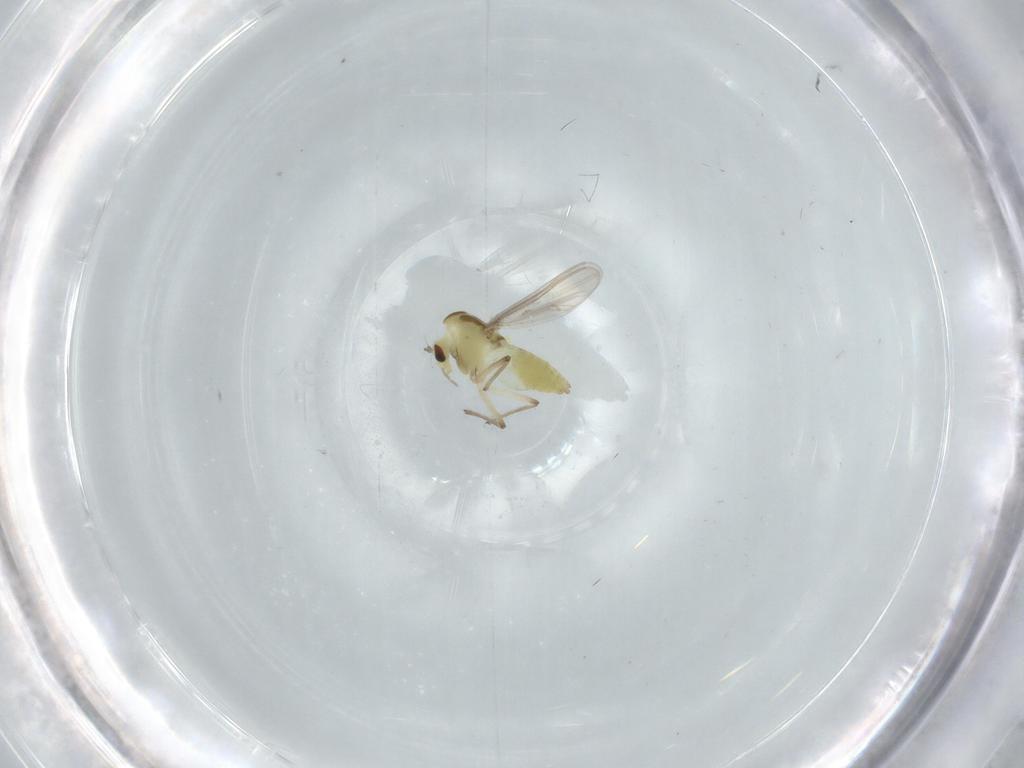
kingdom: Animalia
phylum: Arthropoda
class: Insecta
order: Diptera
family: Chironomidae
